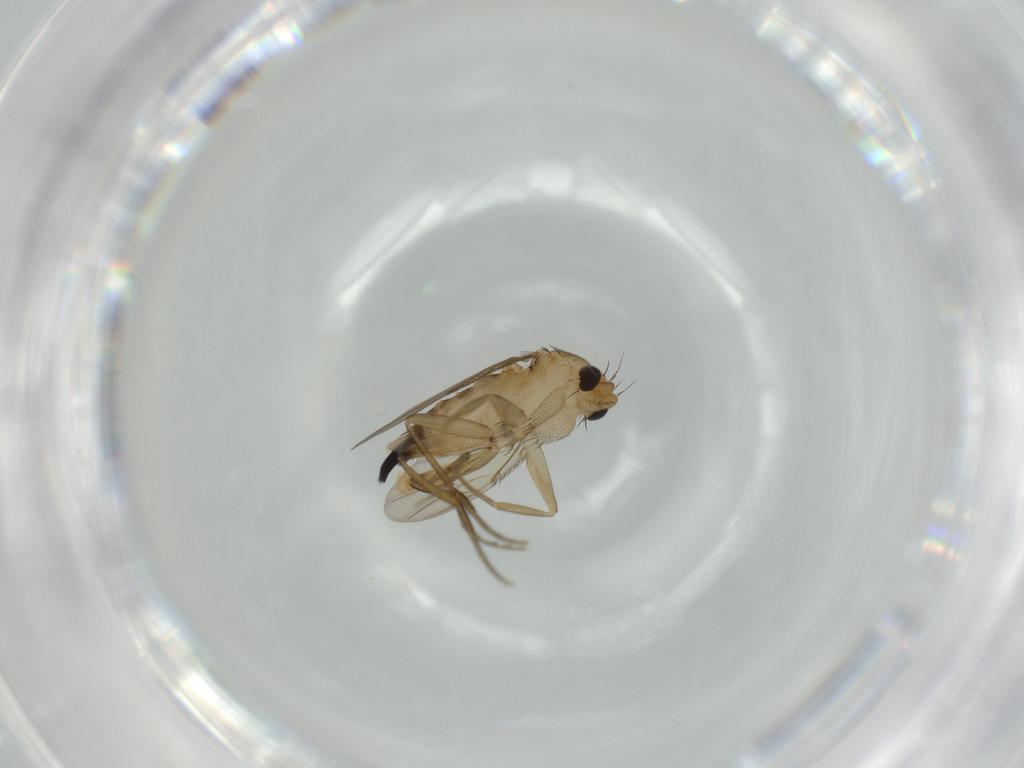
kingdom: Animalia
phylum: Arthropoda
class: Insecta
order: Diptera
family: Phoridae
